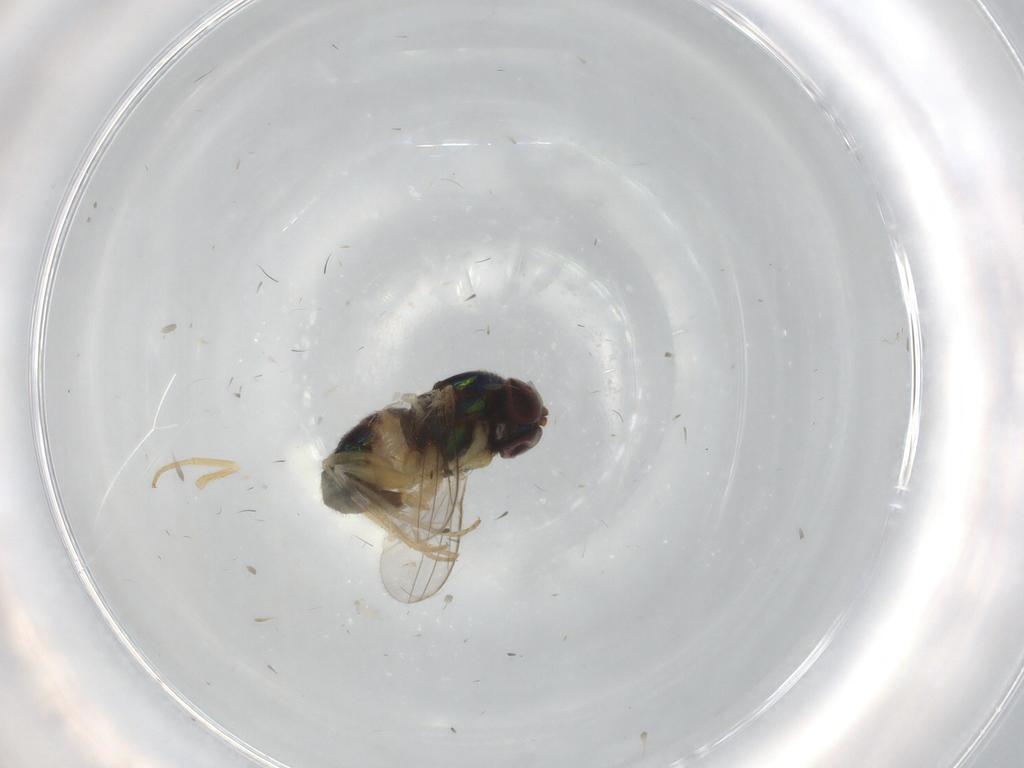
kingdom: Animalia
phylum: Arthropoda
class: Insecta
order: Diptera
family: Dolichopodidae
